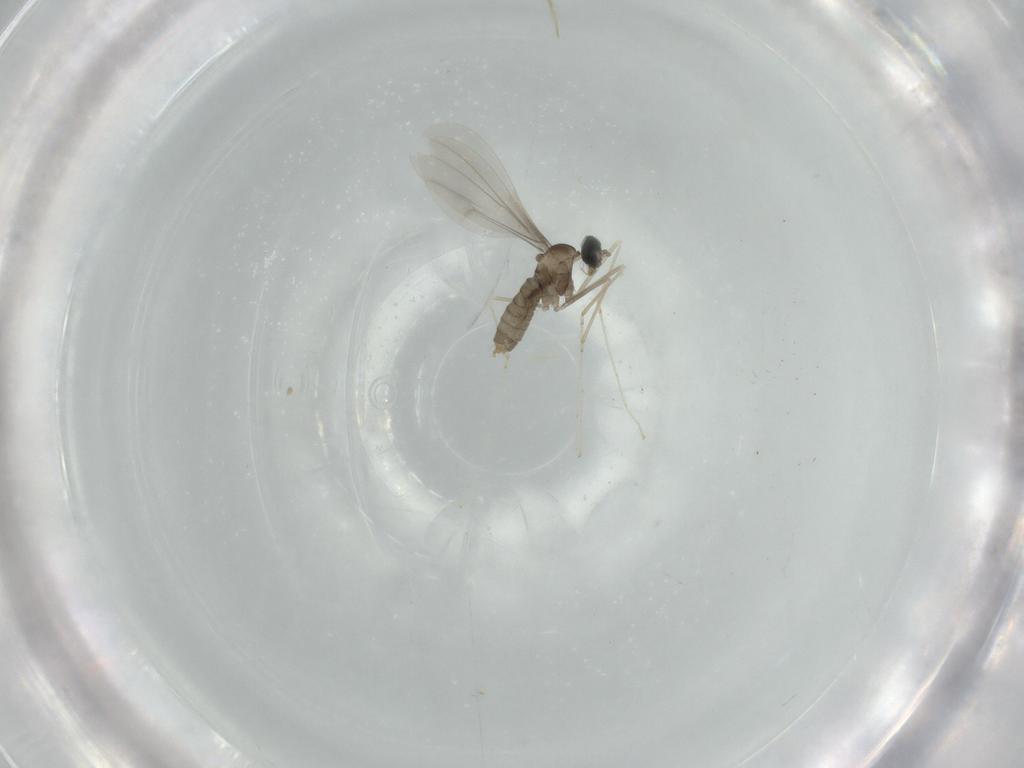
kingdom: Animalia
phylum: Arthropoda
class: Insecta
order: Diptera
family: Cecidomyiidae
